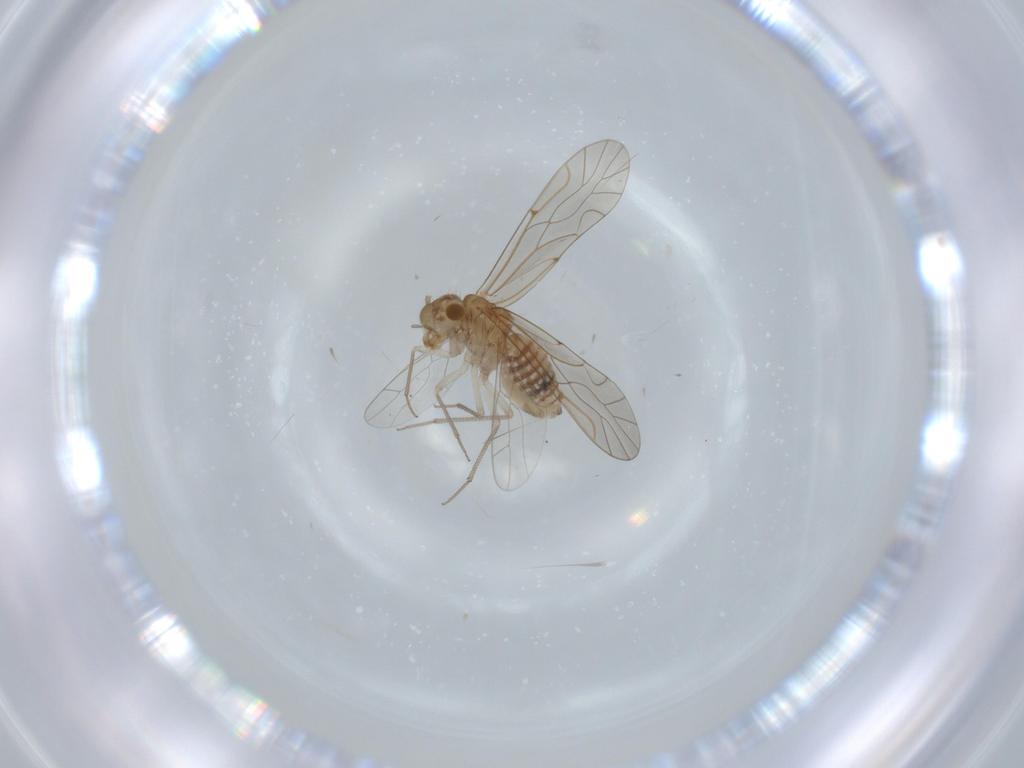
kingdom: Animalia
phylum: Arthropoda
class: Insecta
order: Psocodea
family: Lachesillidae
